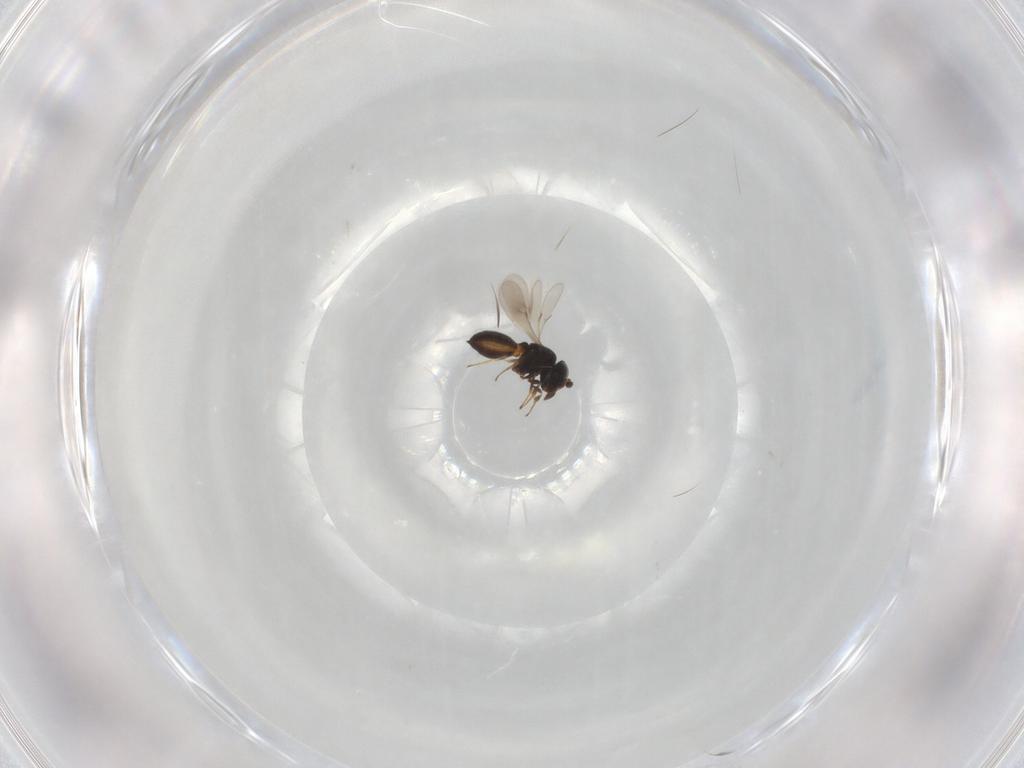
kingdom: Animalia
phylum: Arthropoda
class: Insecta
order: Hymenoptera
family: Scelionidae
